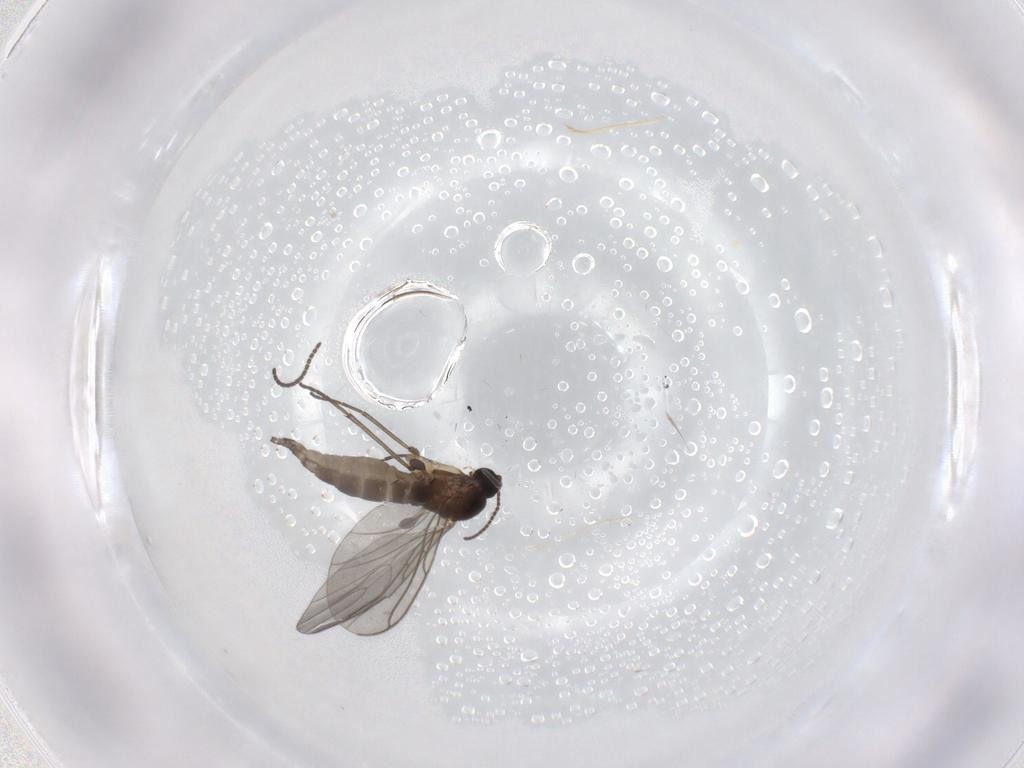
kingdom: Animalia
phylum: Arthropoda
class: Insecta
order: Diptera
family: Sciaridae
